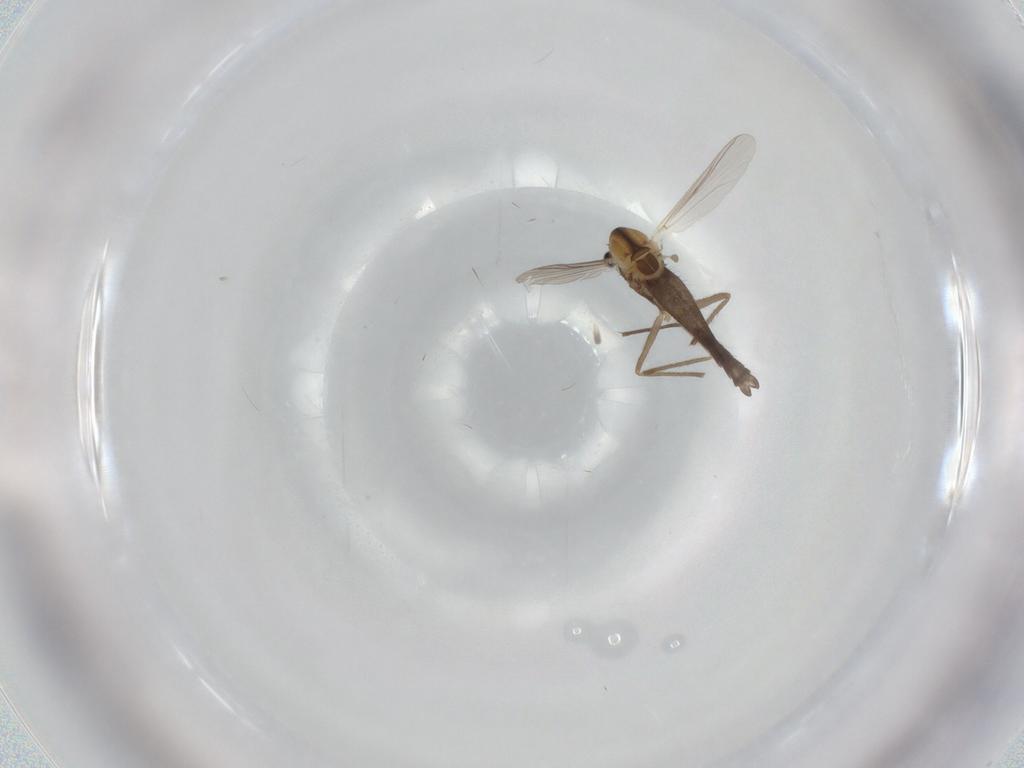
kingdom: Animalia
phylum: Arthropoda
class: Insecta
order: Diptera
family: Chironomidae
